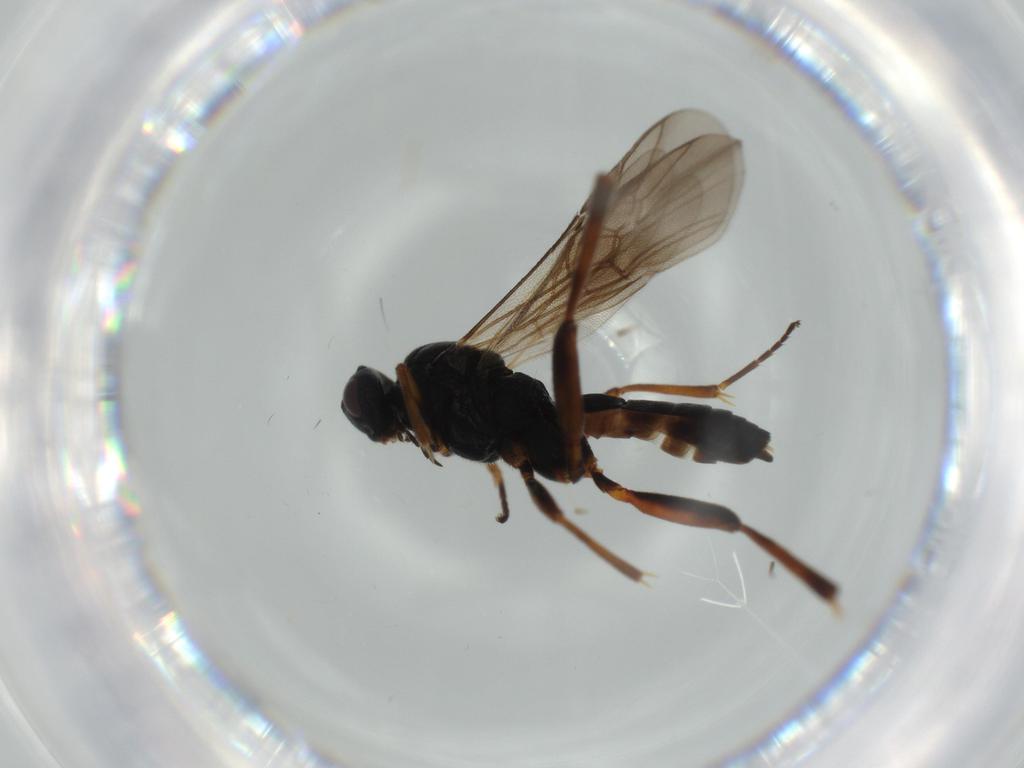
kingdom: Animalia
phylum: Arthropoda
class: Insecta
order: Hymenoptera
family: Braconidae
